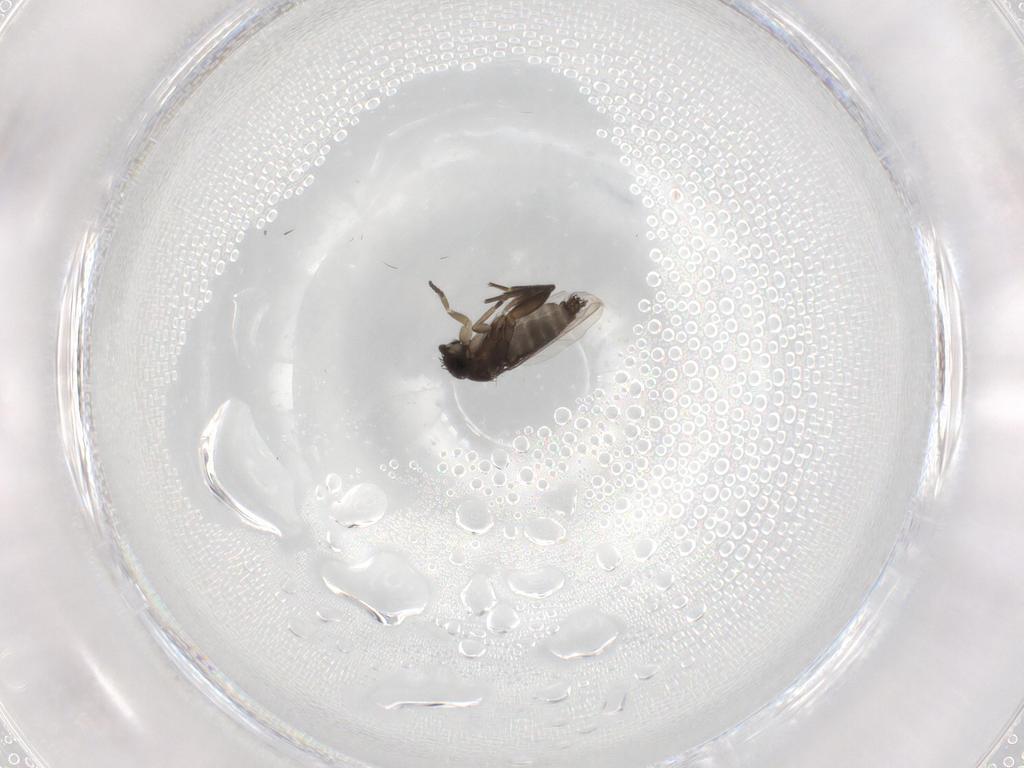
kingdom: Animalia
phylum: Arthropoda
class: Insecta
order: Diptera
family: Phoridae
